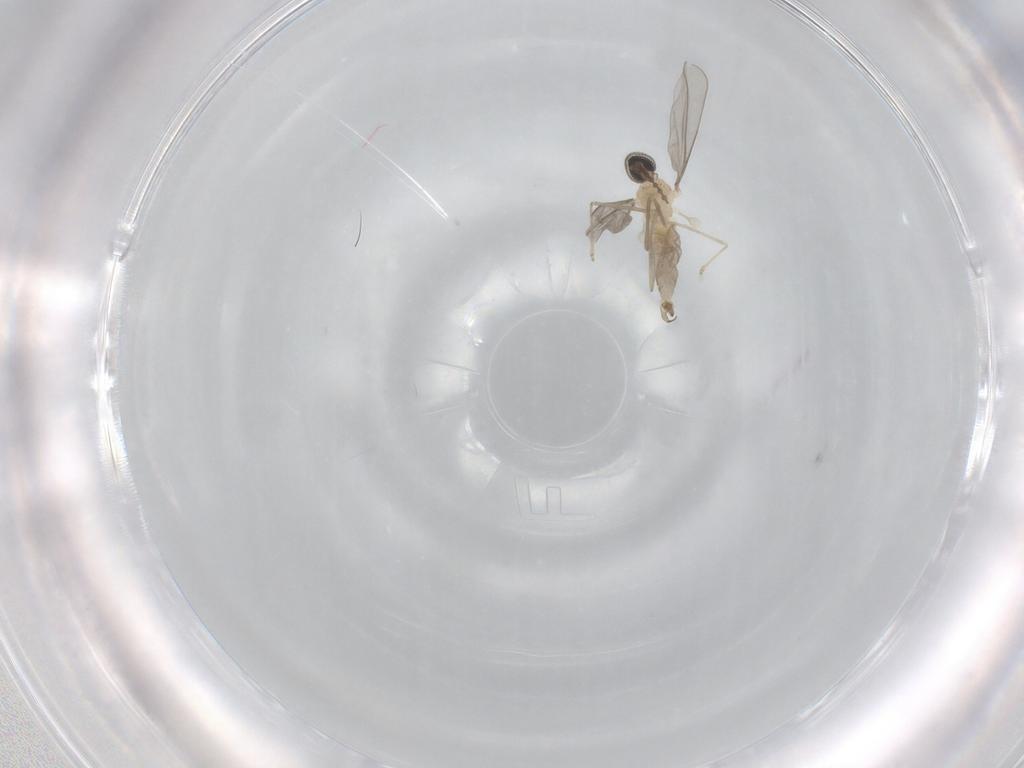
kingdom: Animalia
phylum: Arthropoda
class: Insecta
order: Diptera
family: Cecidomyiidae
